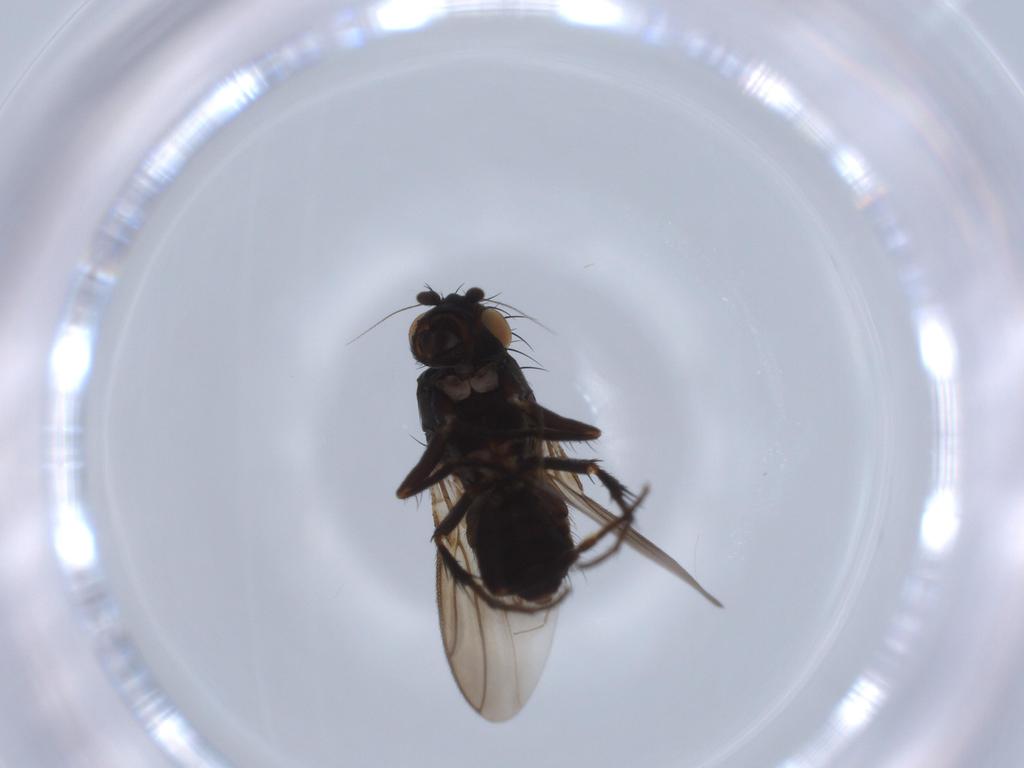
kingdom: Animalia
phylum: Arthropoda
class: Insecta
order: Diptera
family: Sphaeroceridae
